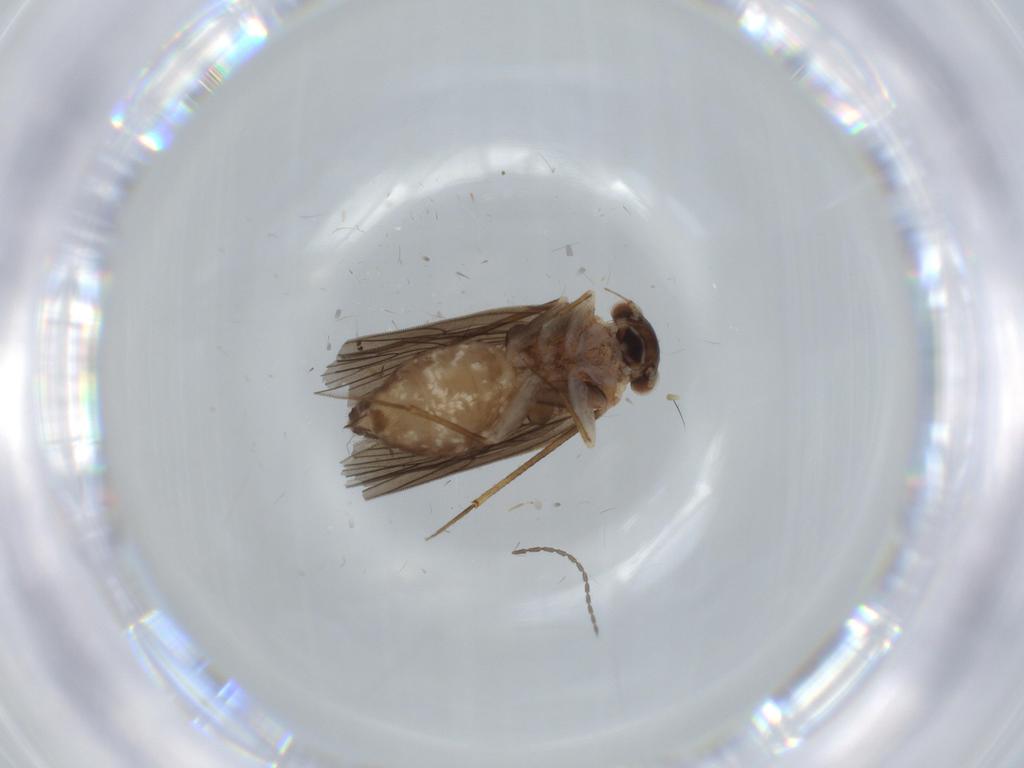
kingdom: Animalia
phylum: Arthropoda
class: Insecta
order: Psocodea
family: Lepidopsocidae
